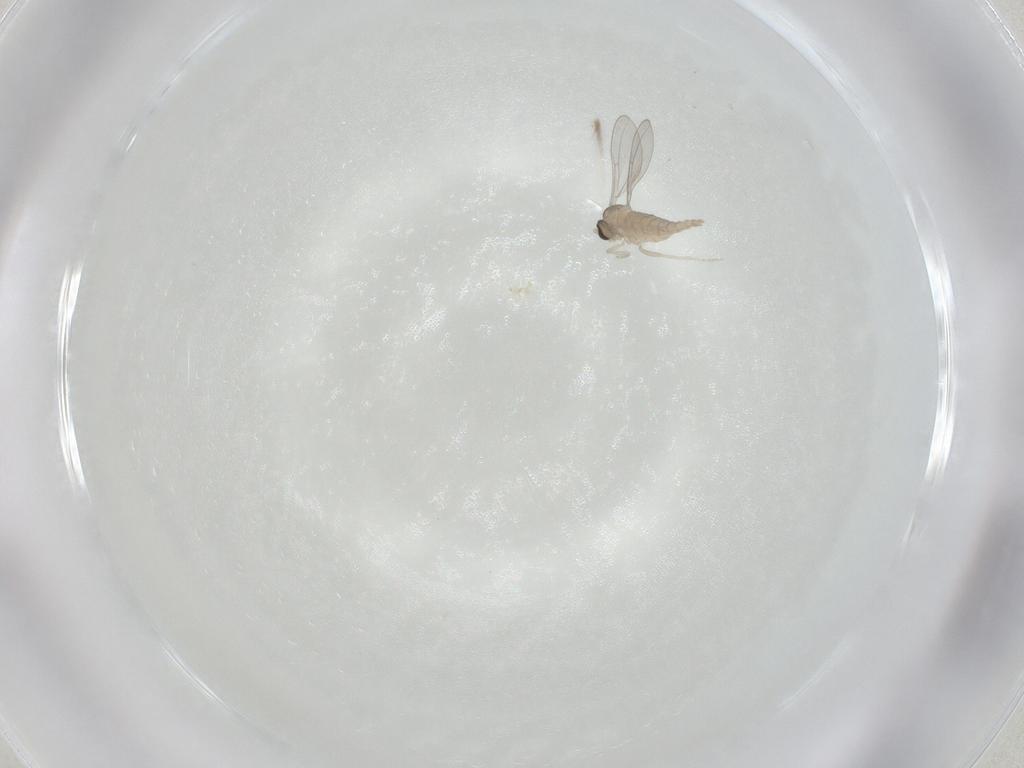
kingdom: Animalia
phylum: Arthropoda
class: Insecta
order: Diptera
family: Cecidomyiidae
